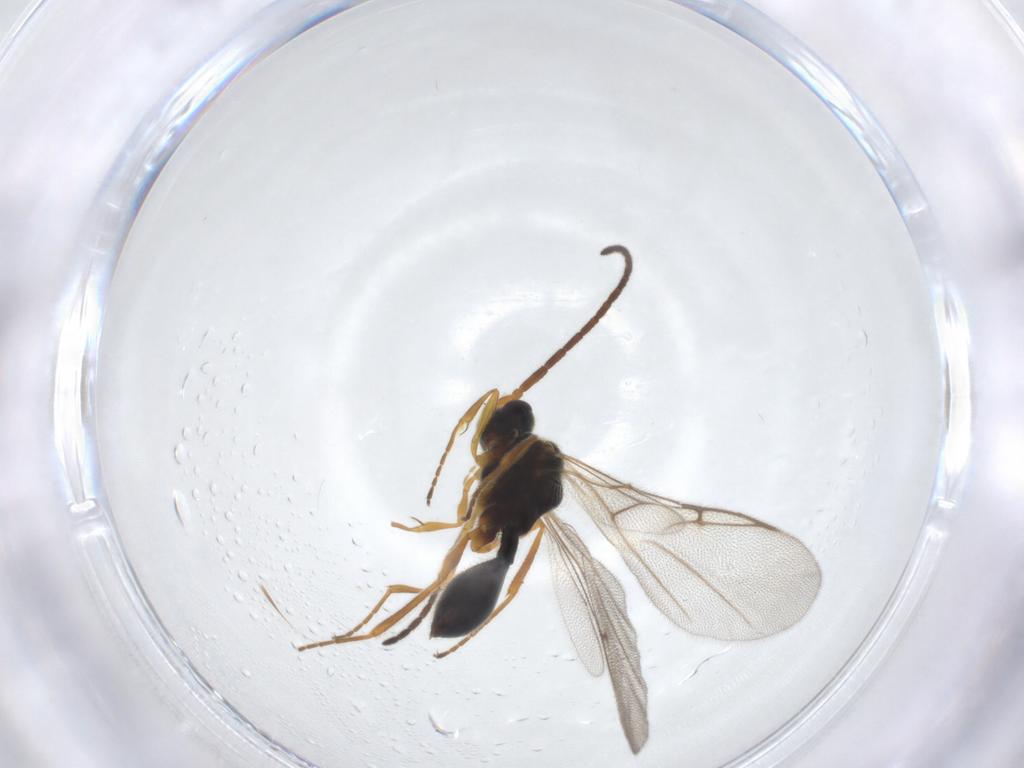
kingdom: Animalia
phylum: Arthropoda
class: Insecta
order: Hymenoptera
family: Diapriidae
